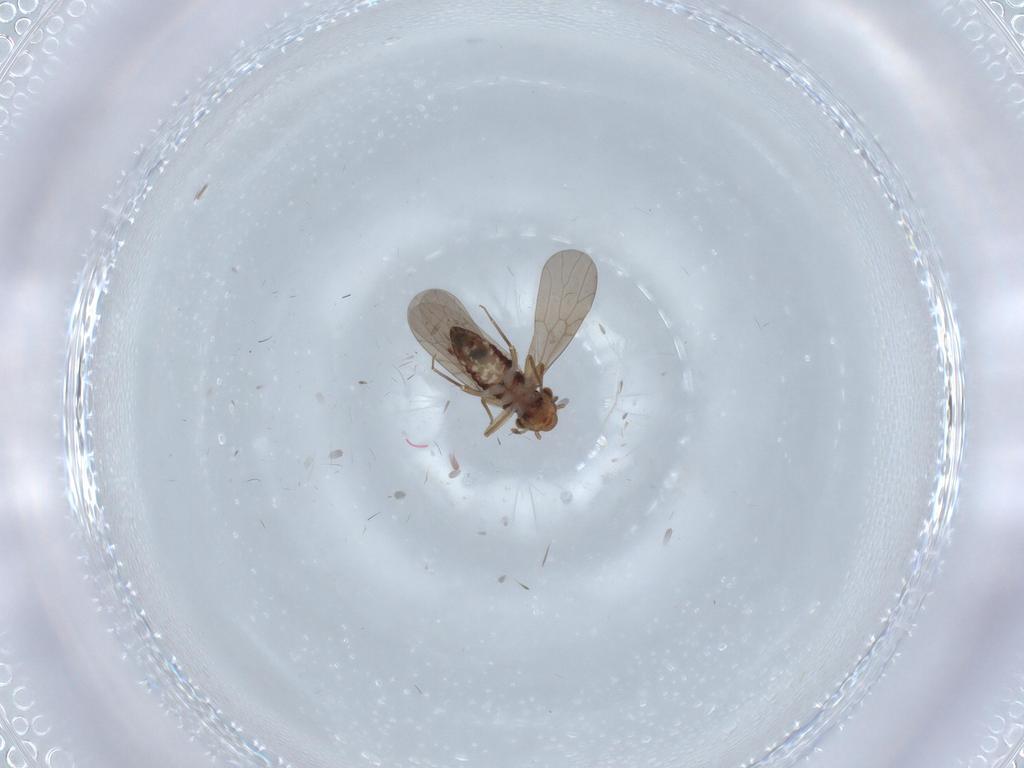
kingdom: Animalia
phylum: Arthropoda
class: Insecta
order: Psocodea
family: Lepidopsocidae
